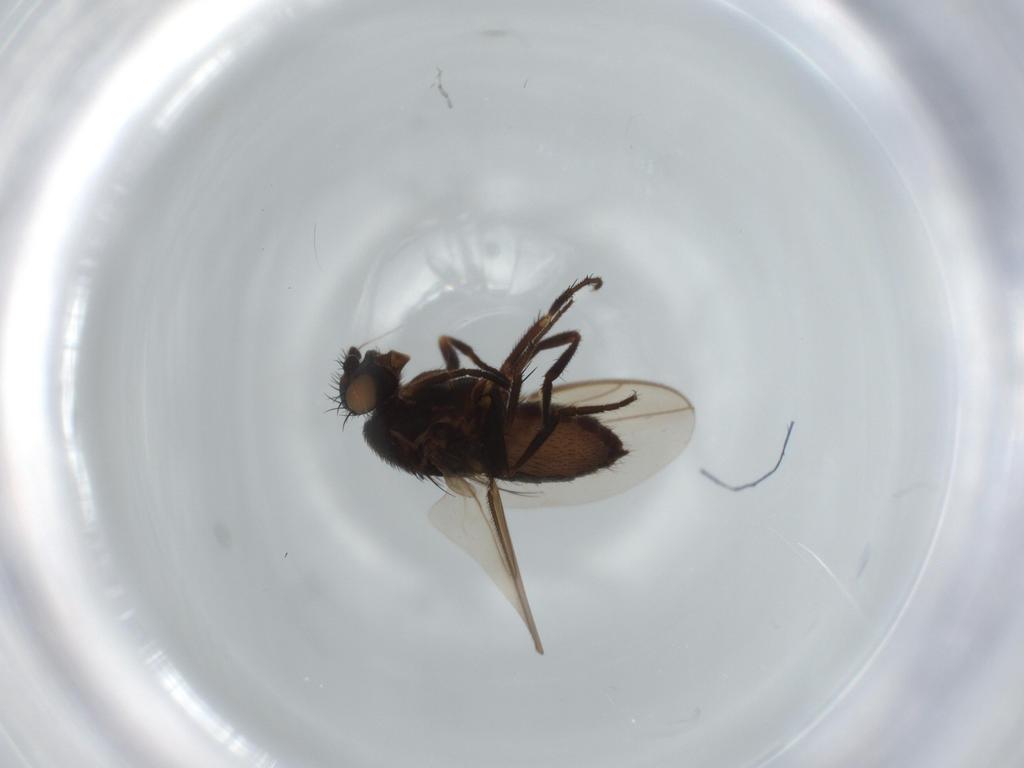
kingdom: Animalia
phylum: Arthropoda
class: Insecta
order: Diptera
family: Sphaeroceridae
